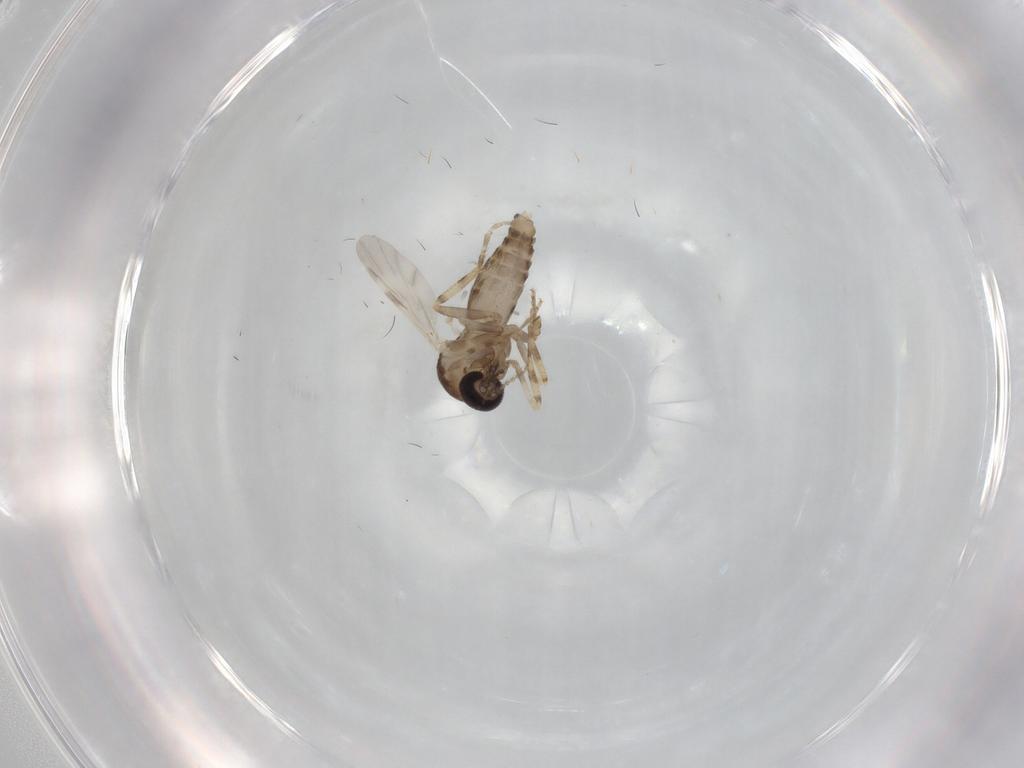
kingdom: Animalia
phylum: Arthropoda
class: Insecta
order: Diptera
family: Ceratopogonidae
